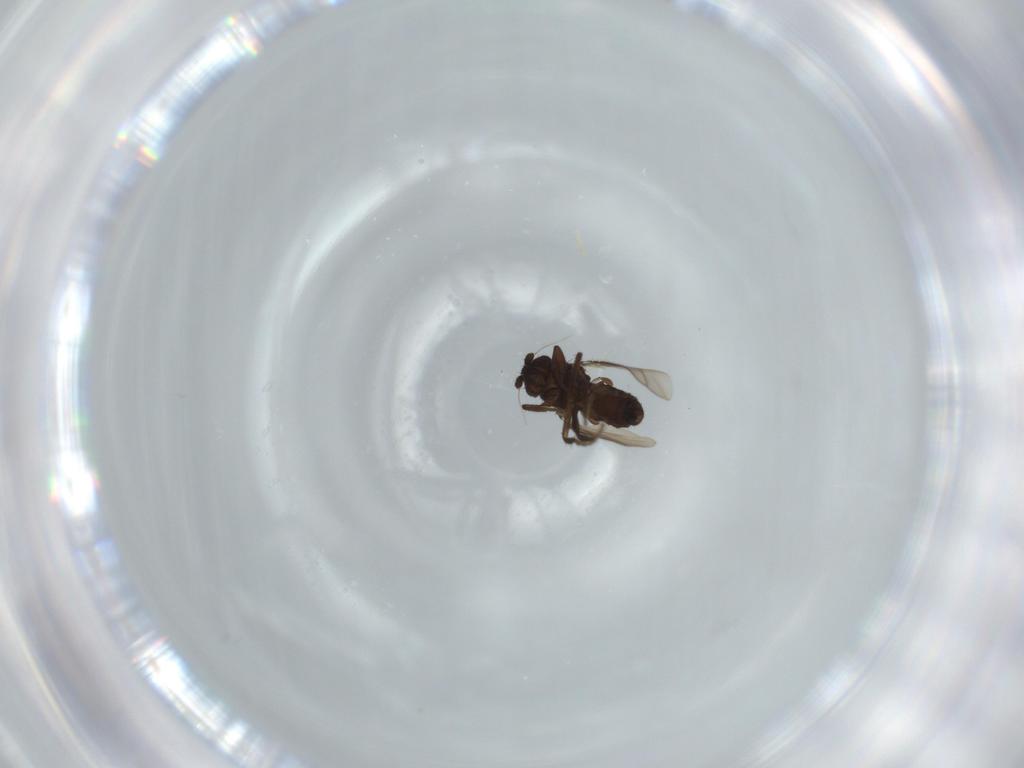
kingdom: Animalia
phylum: Arthropoda
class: Insecta
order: Diptera
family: Sphaeroceridae
